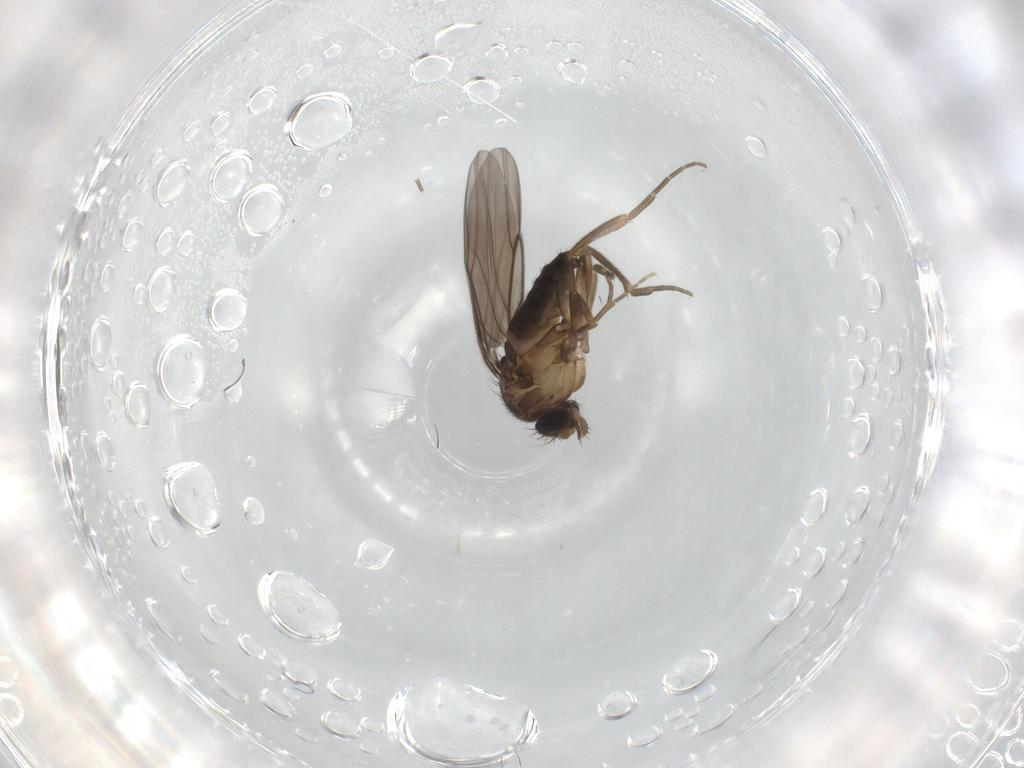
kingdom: Animalia
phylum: Arthropoda
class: Insecta
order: Diptera
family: Phoridae
